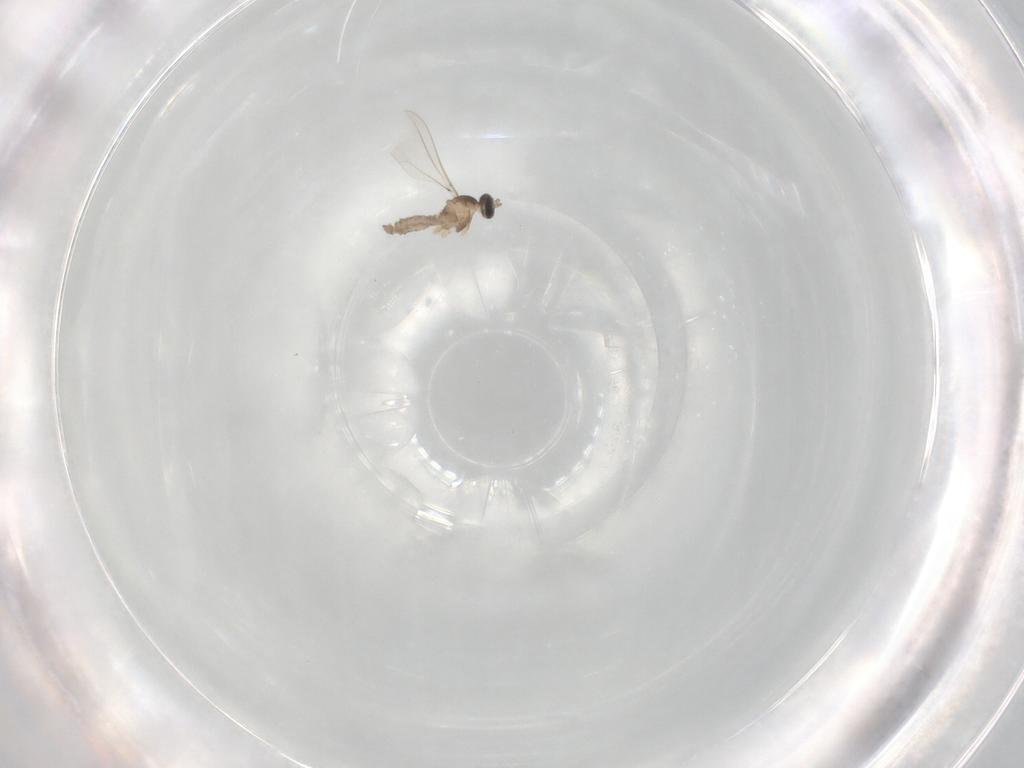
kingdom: Animalia
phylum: Arthropoda
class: Insecta
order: Diptera
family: Cecidomyiidae
